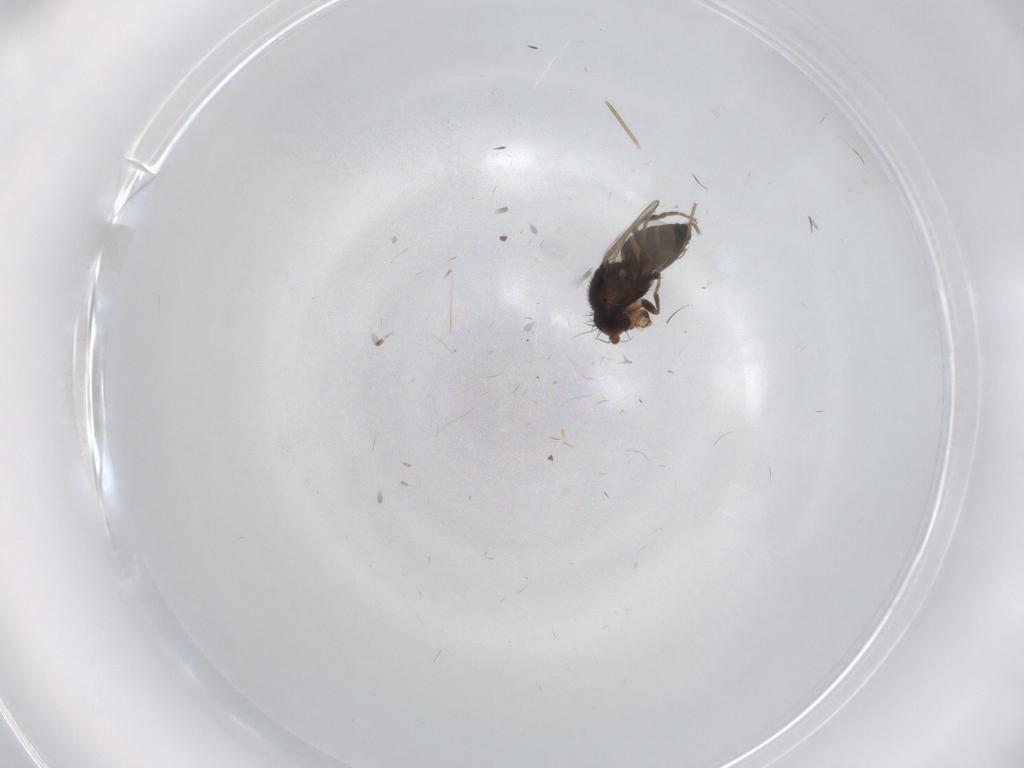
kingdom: Animalia
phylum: Arthropoda
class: Insecta
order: Diptera
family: Sphaeroceridae
